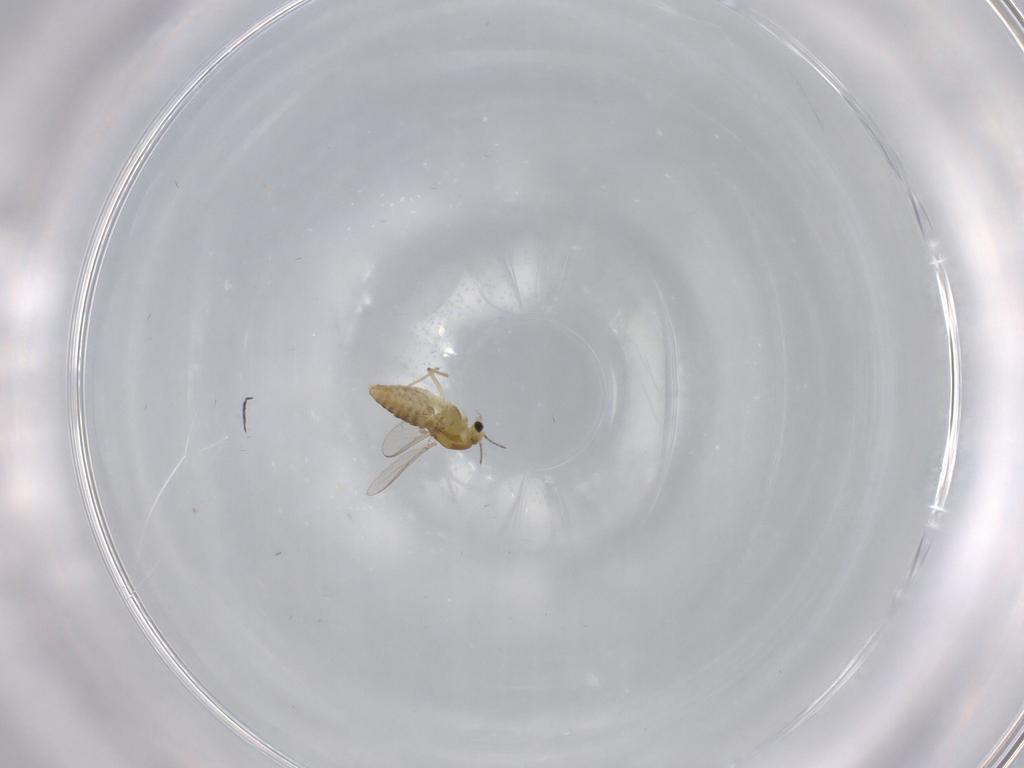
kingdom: Animalia
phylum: Arthropoda
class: Insecta
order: Diptera
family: Chironomidae
